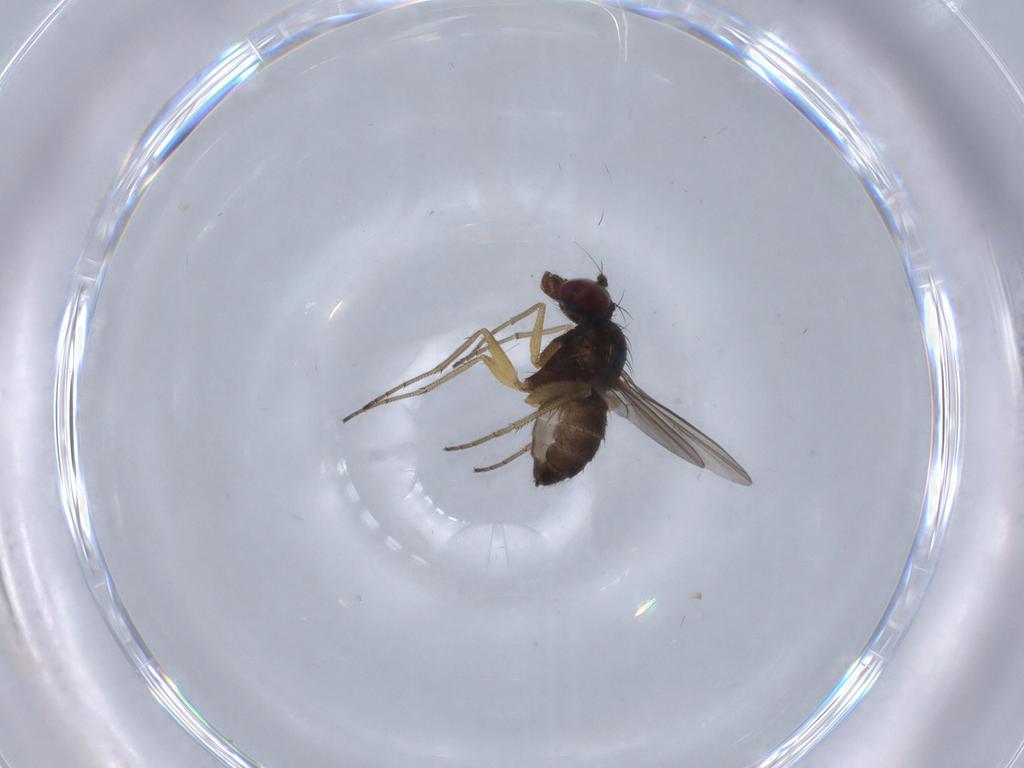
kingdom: Animalia
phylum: Arthropoda
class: Insecta
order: Diptera
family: Dolichopodidae
